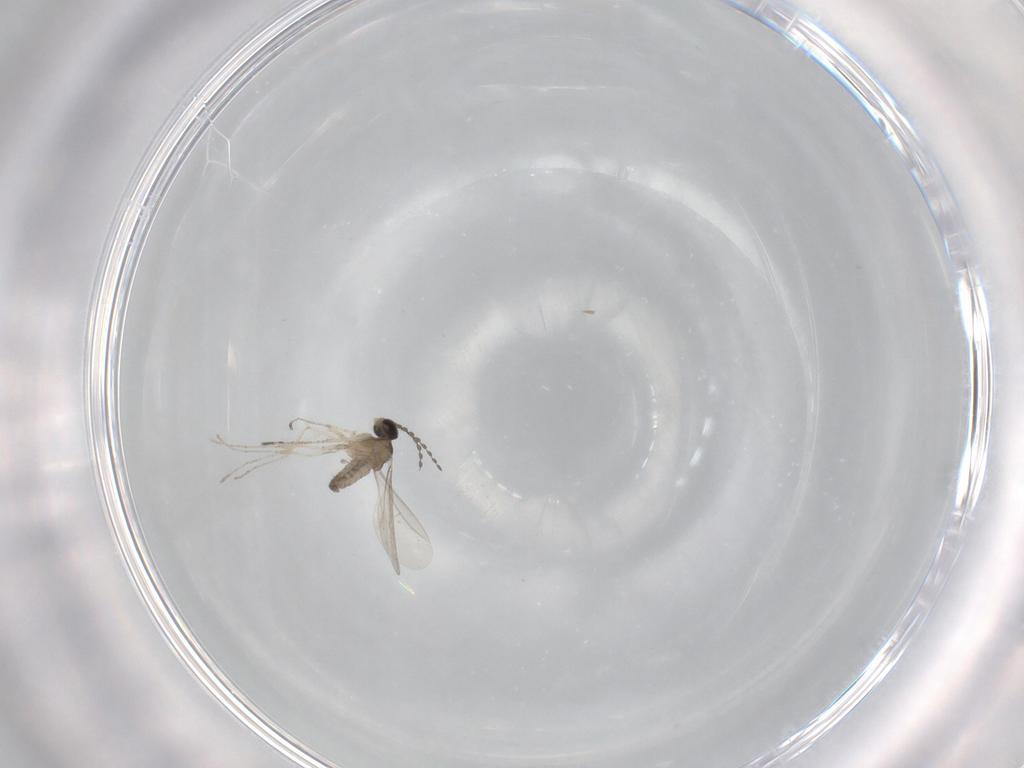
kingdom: Animalia
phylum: Arthropoda
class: Insecta
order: Diptera
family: Cecidomyiidae
